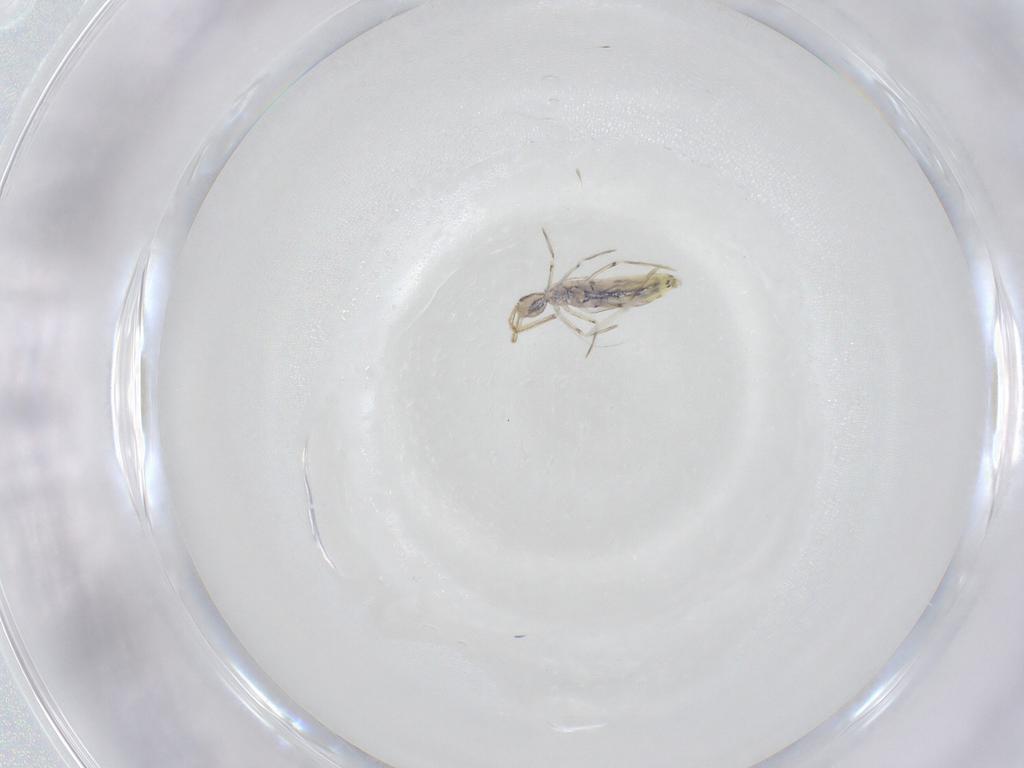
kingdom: Animalia
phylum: Arthropoda
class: Collembola
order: Entomobryomorpha
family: Entomobryidae
